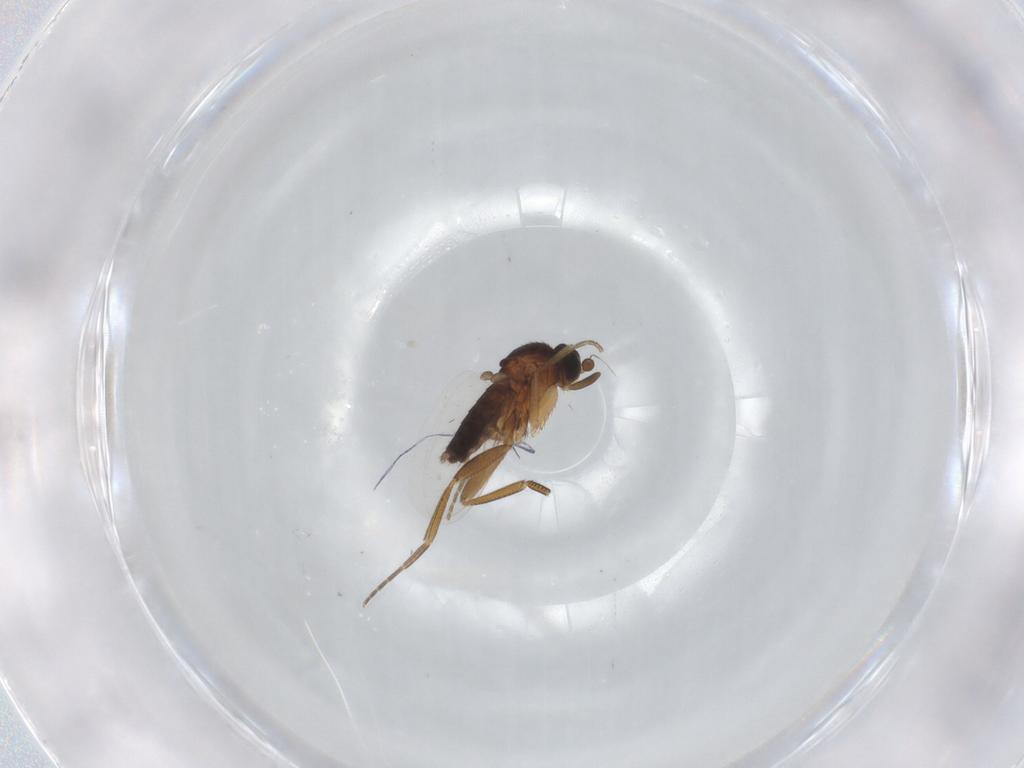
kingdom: Animalia
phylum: Arthropoda
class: Insecta
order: Diptera
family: Phoridae
